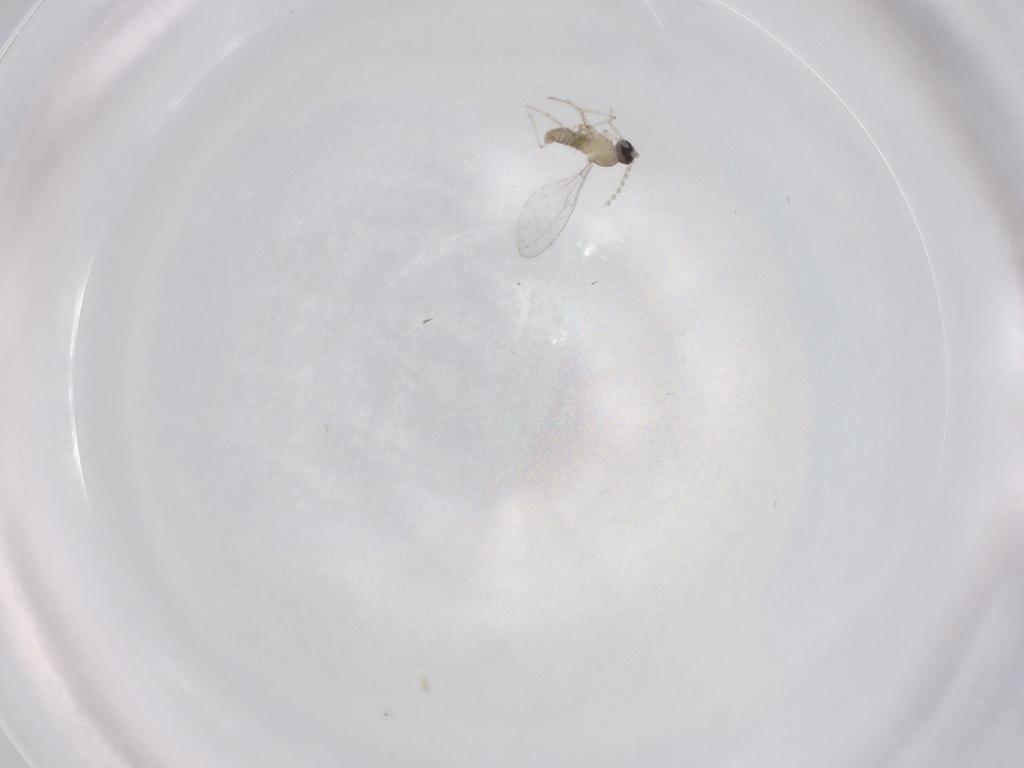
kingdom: Animalia
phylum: Arthropoda
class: Insecta
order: Diptera
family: Cecidomyiidae
